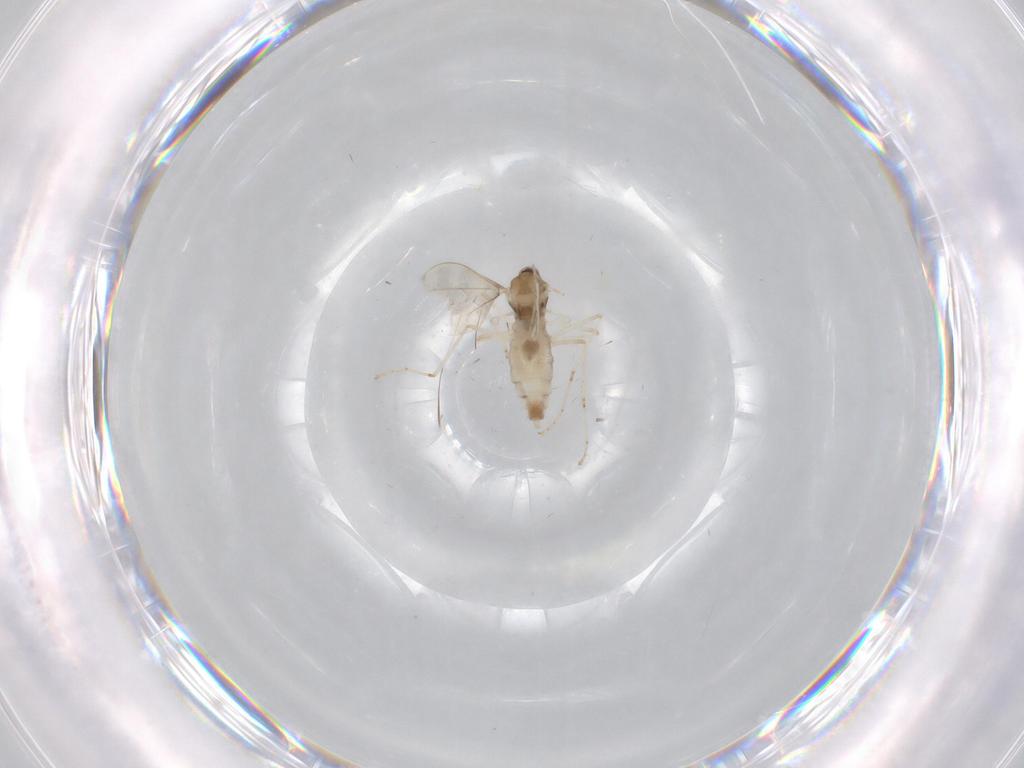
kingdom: Animalia
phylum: Arthropoda
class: Insecta
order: Diptera
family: Cecidomyiidae
